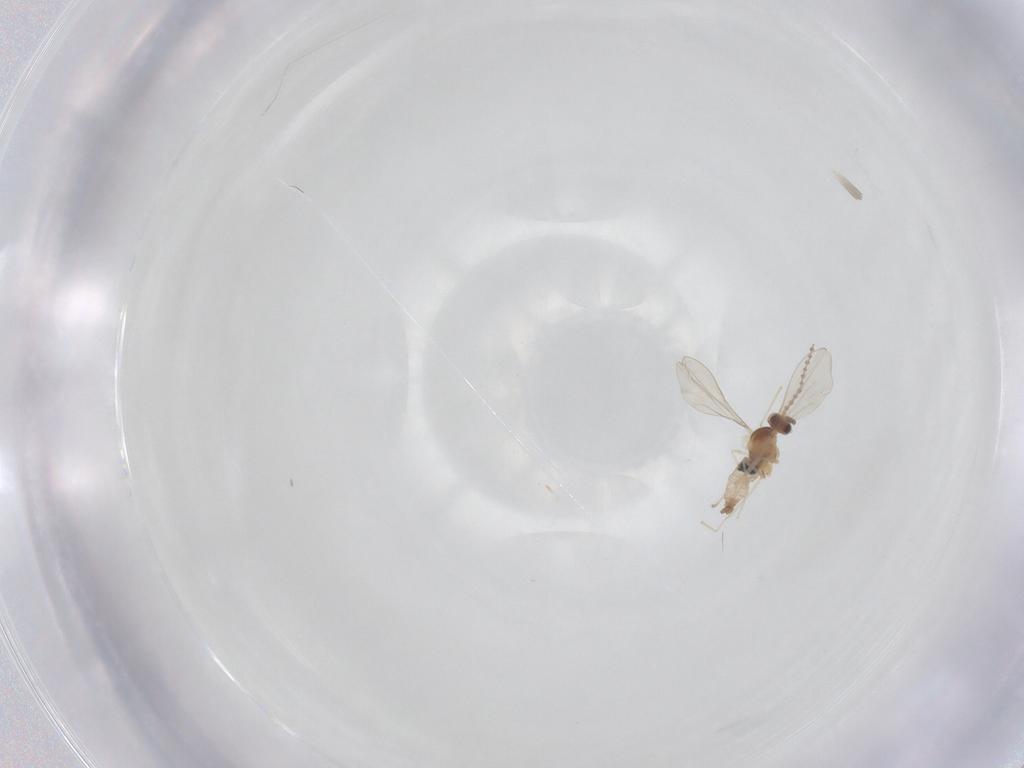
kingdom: Animalia
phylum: Arthropoda
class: Insecta
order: Diptera
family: Cecidomyiidae
